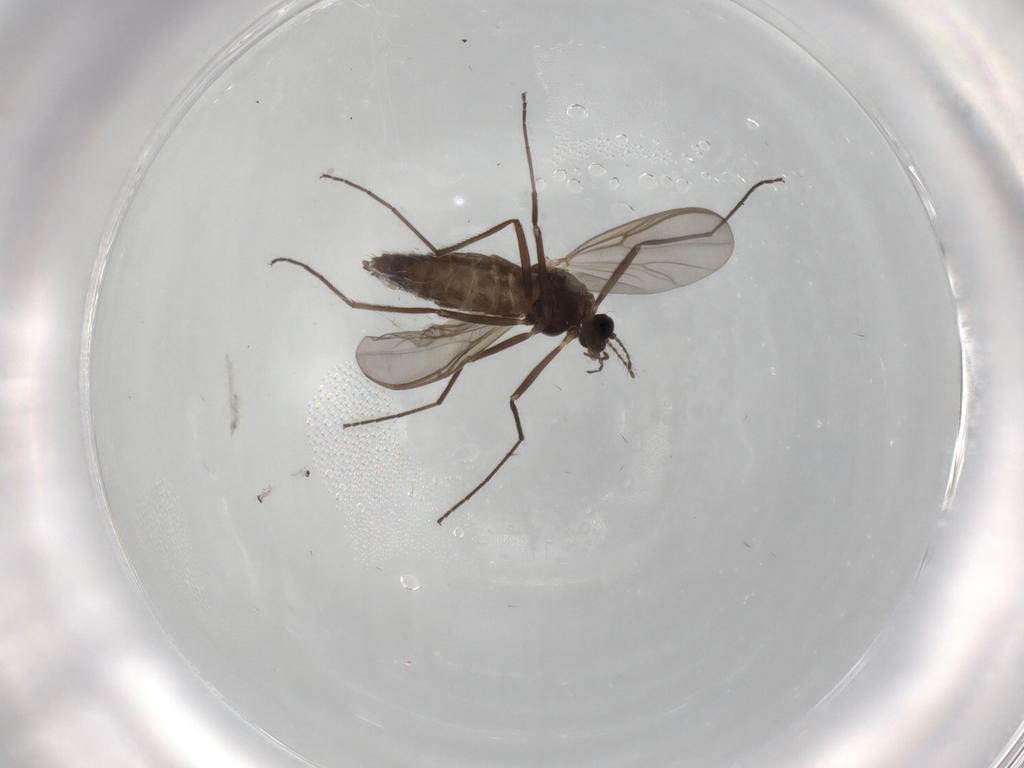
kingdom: Animalia
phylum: Arthropoda
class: Insecta
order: Diptera
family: Chironomidae
